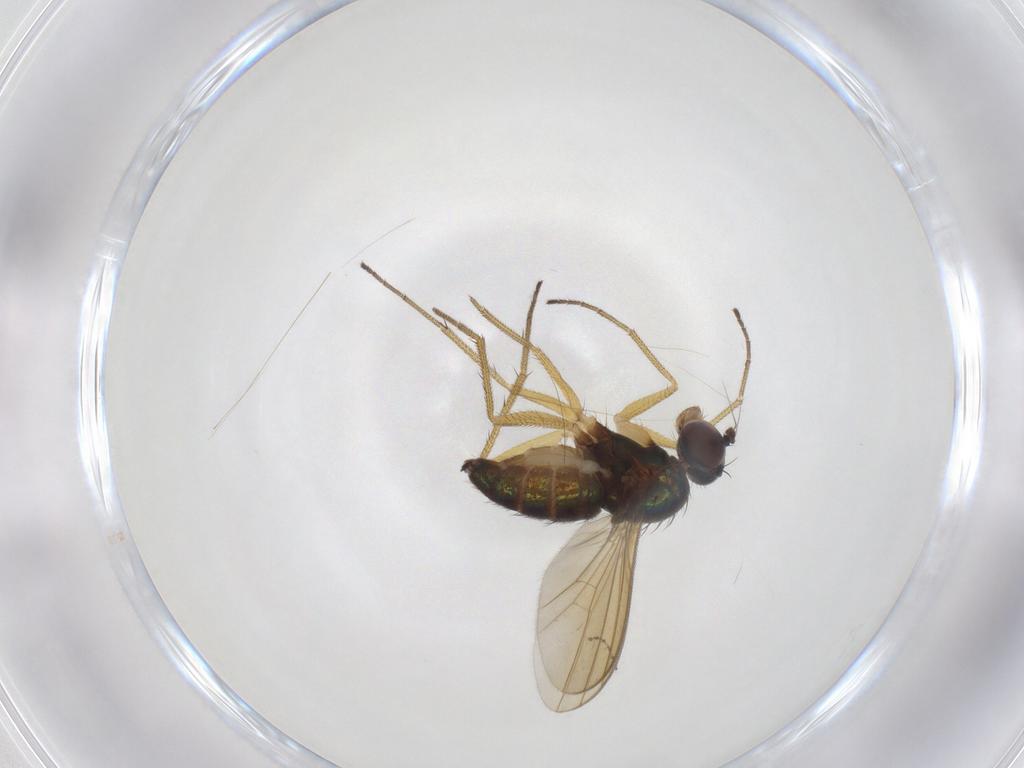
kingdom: Animalia
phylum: Arthropoda
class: Insecta
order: Diptera
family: Dolichopodidae
